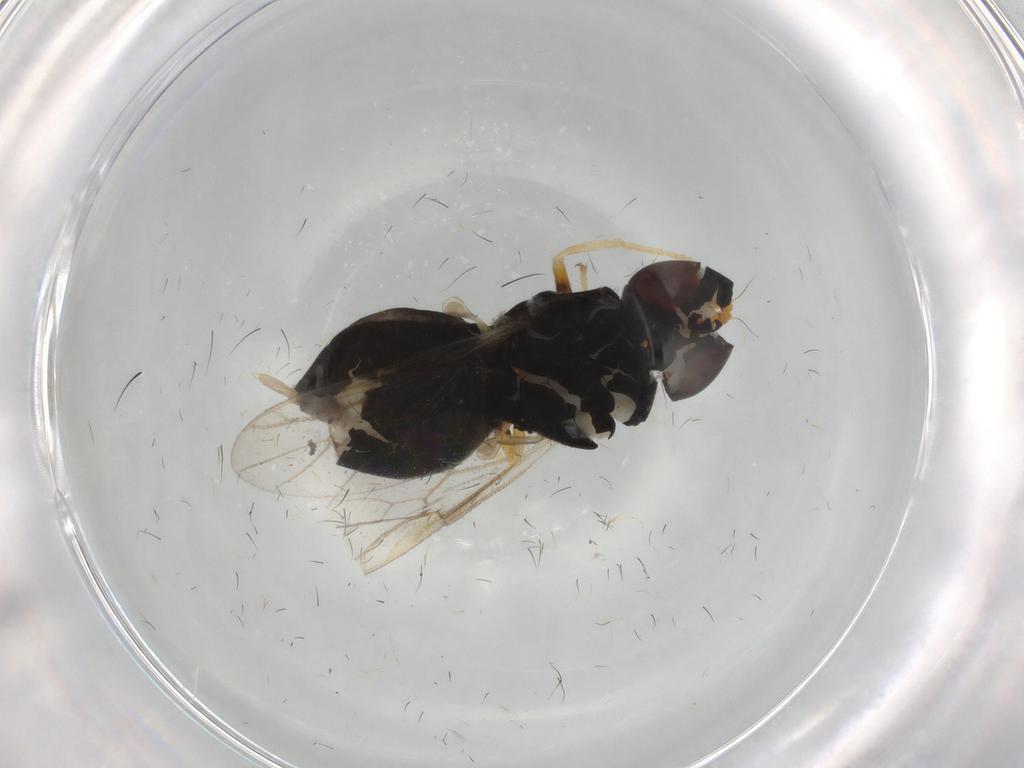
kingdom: Animalia
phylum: Arthropoda
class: Insecta
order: Diptera
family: Stratiomyidae
